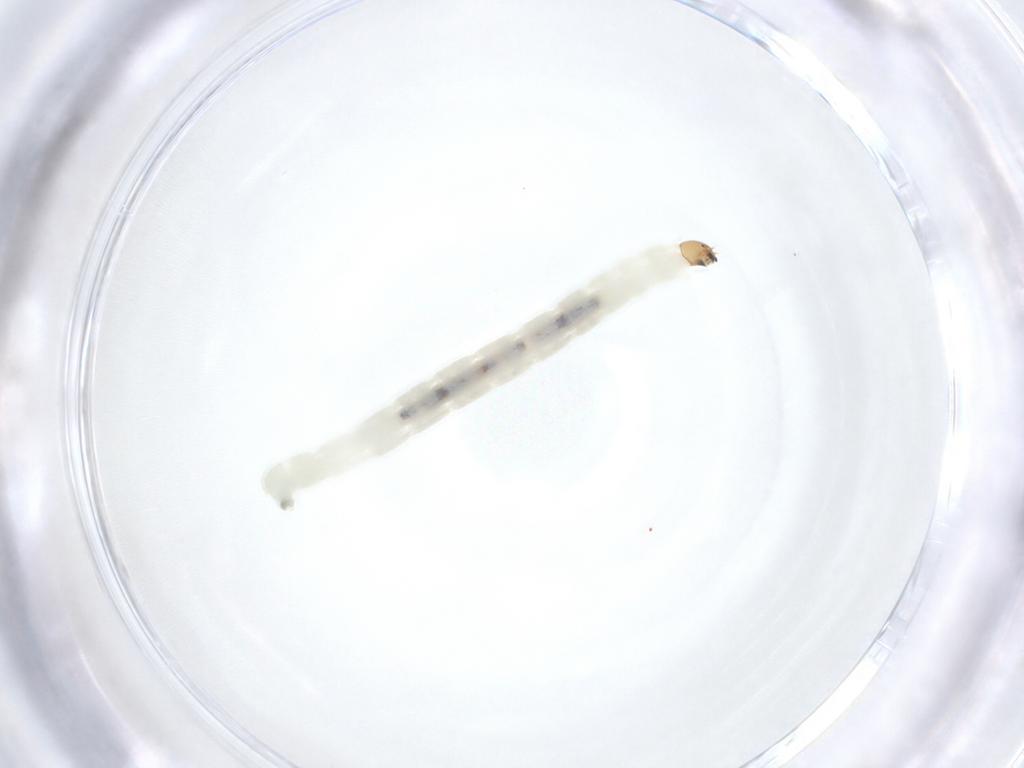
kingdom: Animalia
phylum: Arthropoda
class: Insecta
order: Diptera
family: Chironomidae
